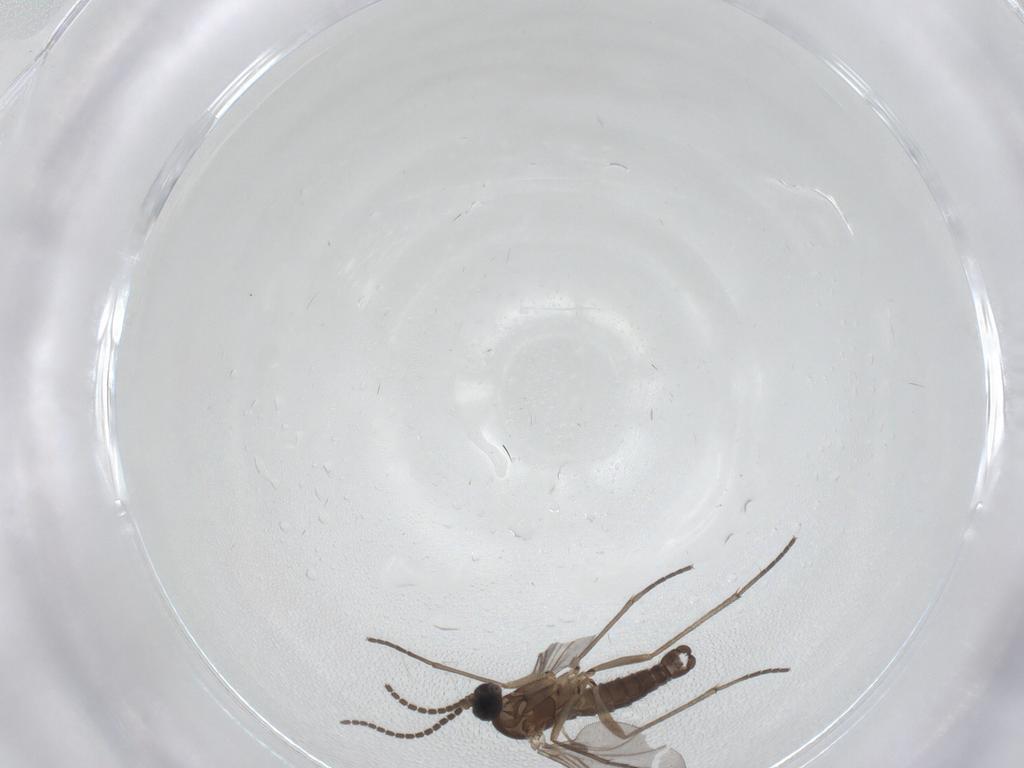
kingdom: Animalia
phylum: Arthropoda
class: Insecta
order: Diptera
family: Sciaridae
